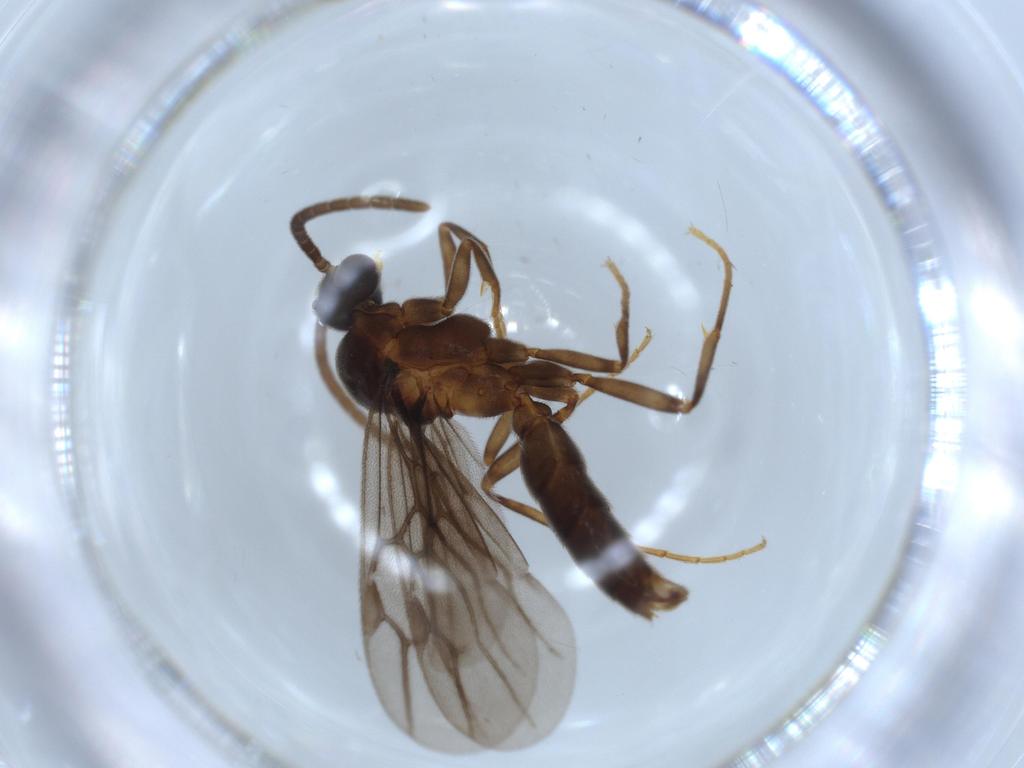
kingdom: Animalia
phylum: Arthropoda
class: Insecta
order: Hymenoptera
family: Formicidae
